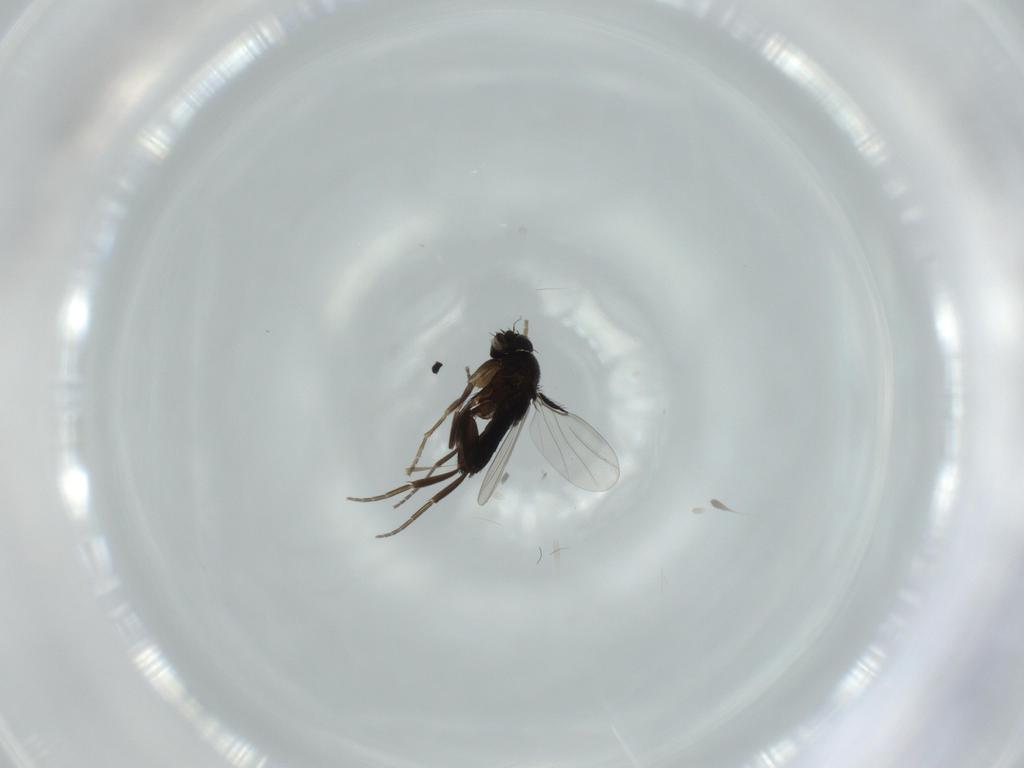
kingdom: Animalia
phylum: Arthropoda
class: Insecta
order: Diptera
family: Phoridae
